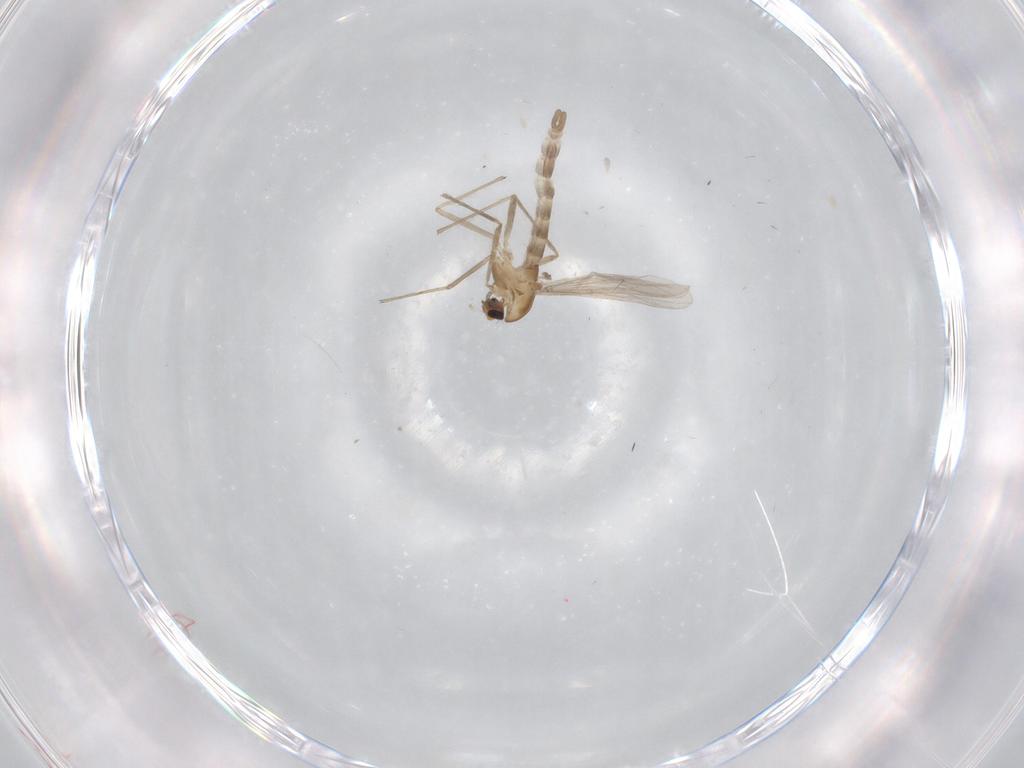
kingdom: Animalia
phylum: Arthropoda
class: Insecta
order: Diptera
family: Chironomidae
